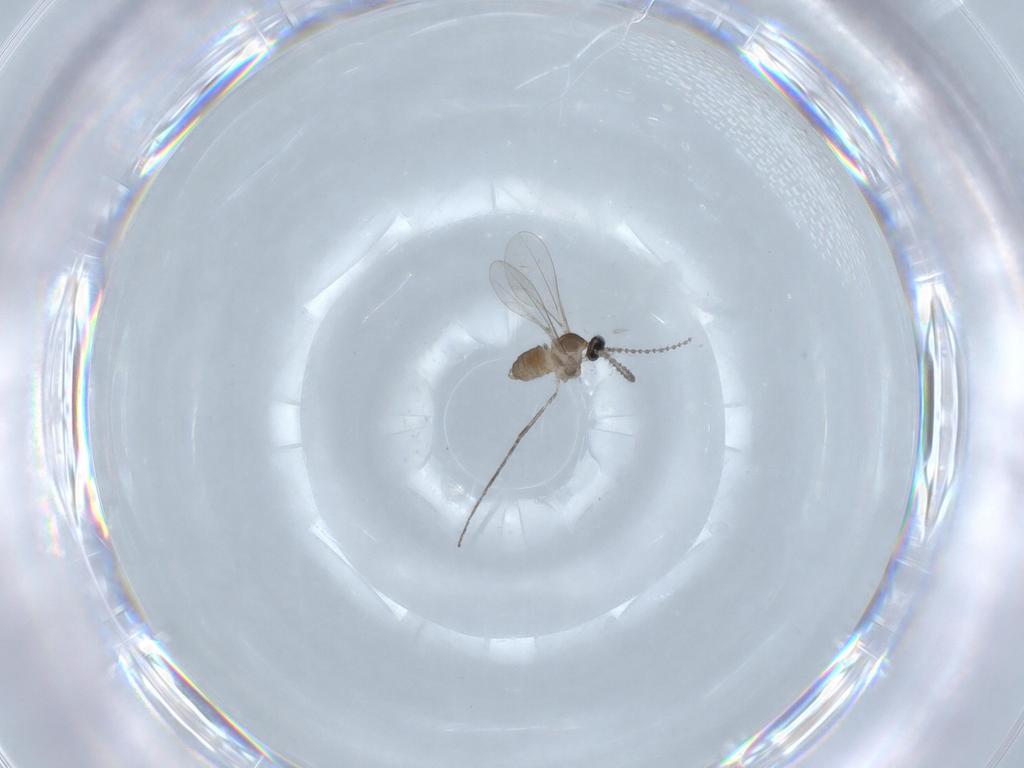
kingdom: Animalia
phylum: Arthropoda
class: Insecta
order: Diptera
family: Cecidomyiidae
